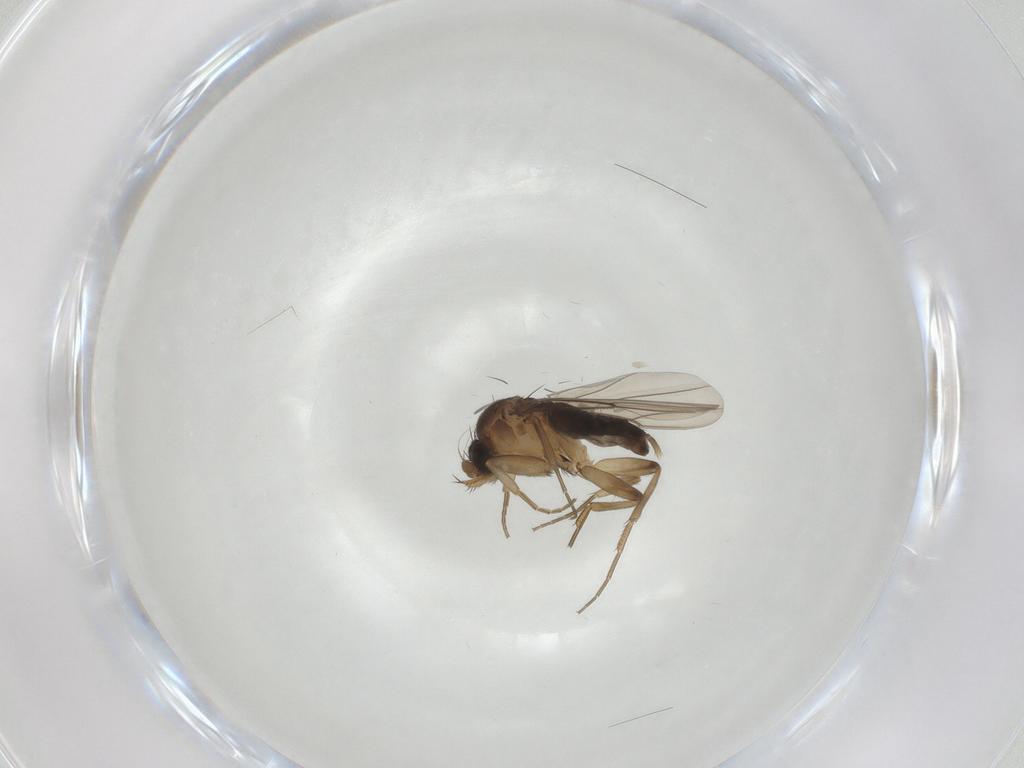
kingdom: Animalia
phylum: Arthropoda
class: Insecta
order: Diptera
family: Phoridae
